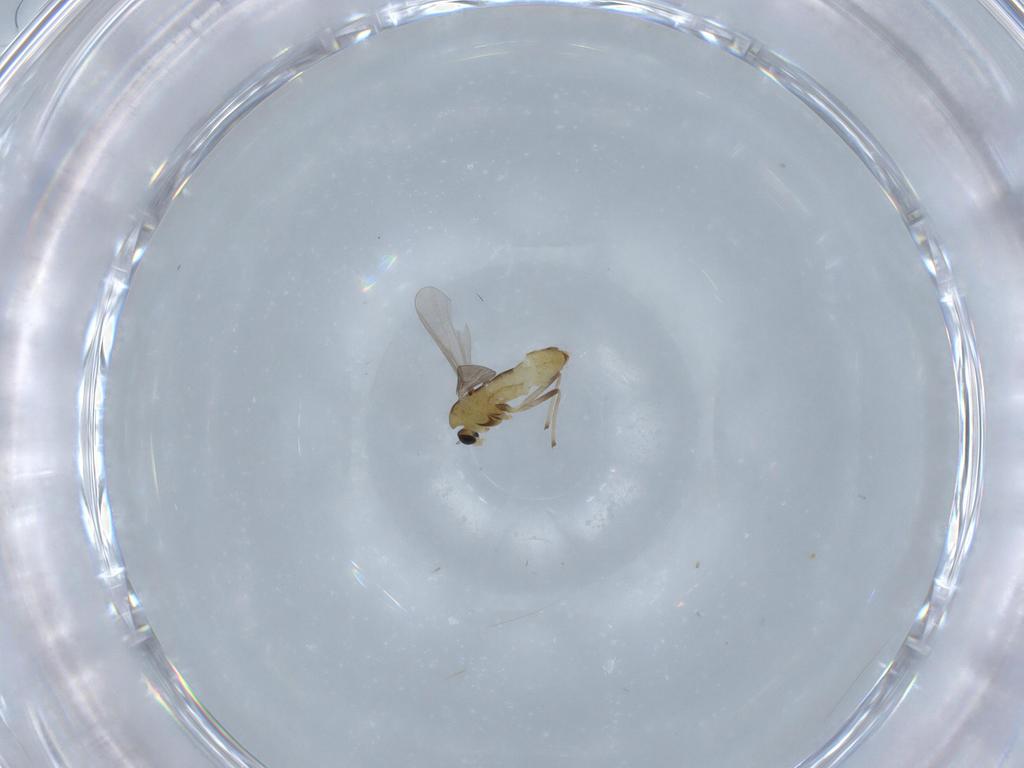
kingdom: Animalia
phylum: Arthropoda
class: Insecta
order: Diptera
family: Chironomidae
